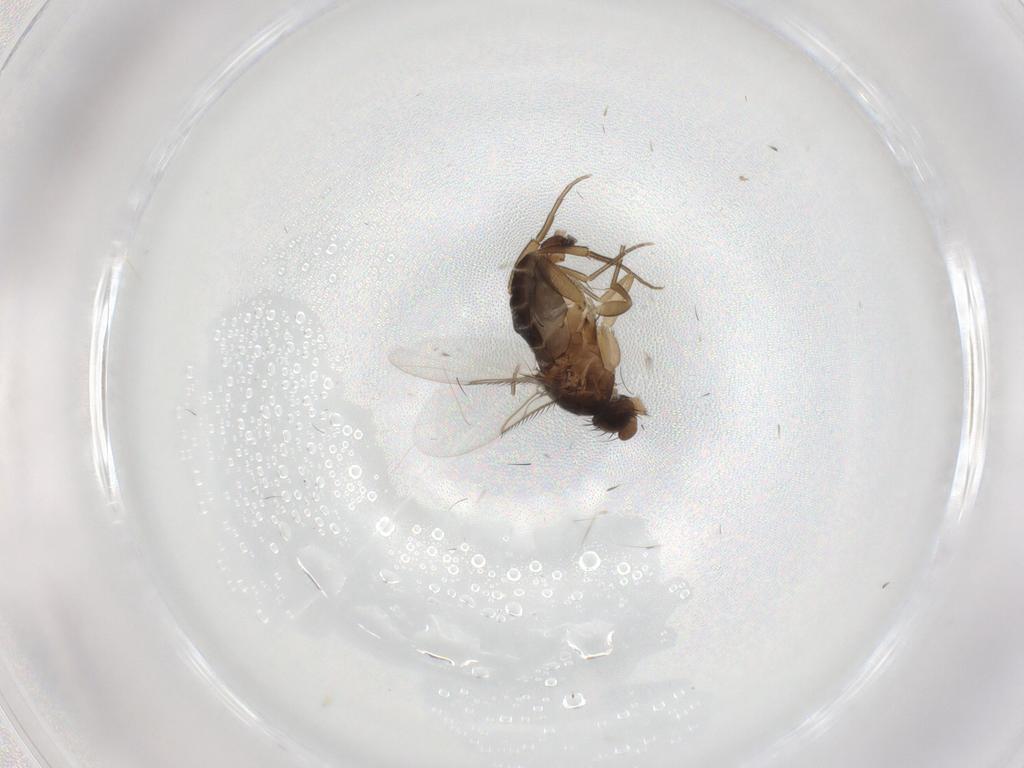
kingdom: Animalia
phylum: Arthropoda
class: Insecta
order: Diptera
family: Phoridae
